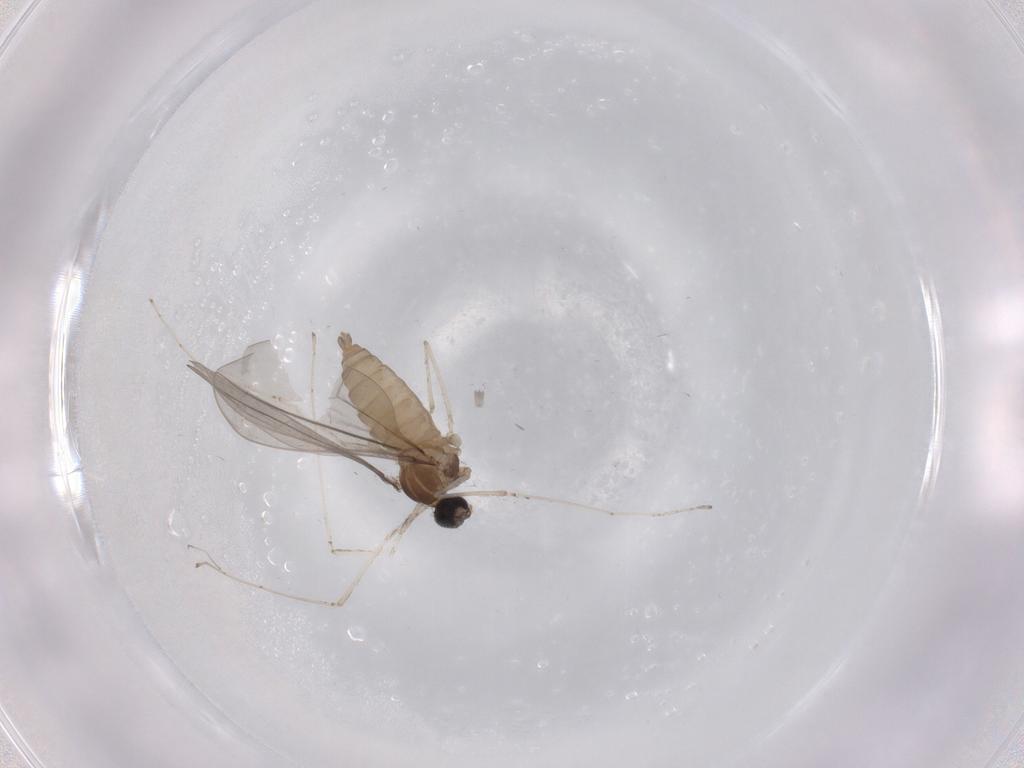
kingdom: Animalia
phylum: Arthropoda
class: Insecta
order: Diptera
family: Cecidomyiidae
